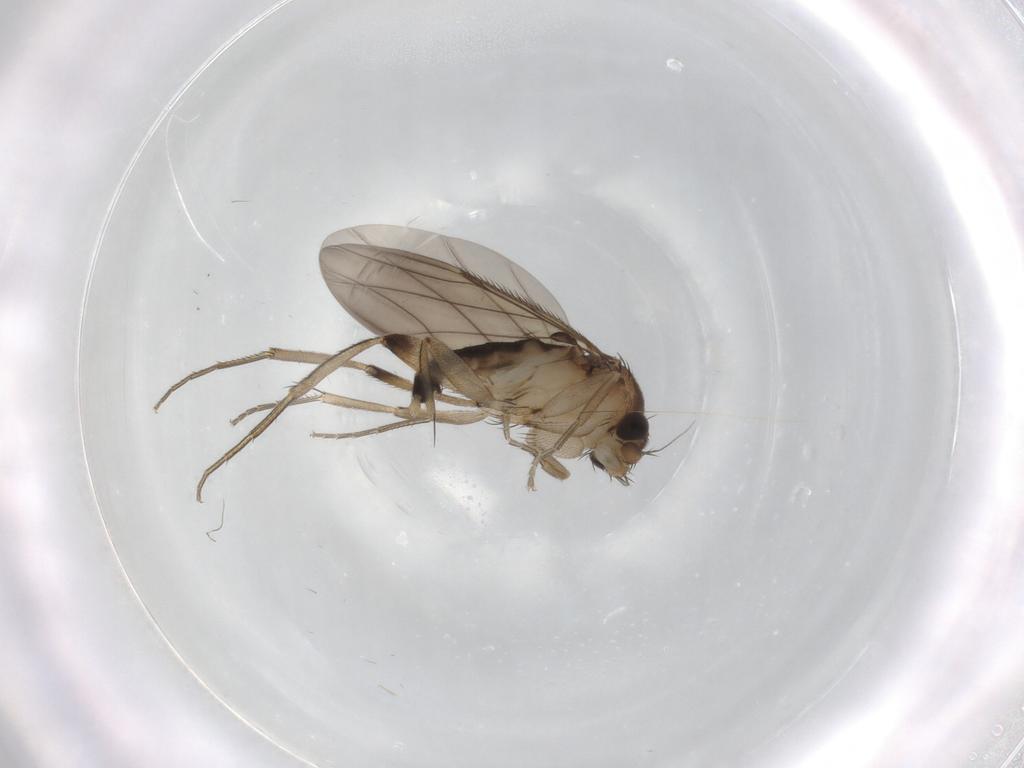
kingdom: Animalia
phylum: Arthropoda
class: Insecta
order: Diptera
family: Phoridae
